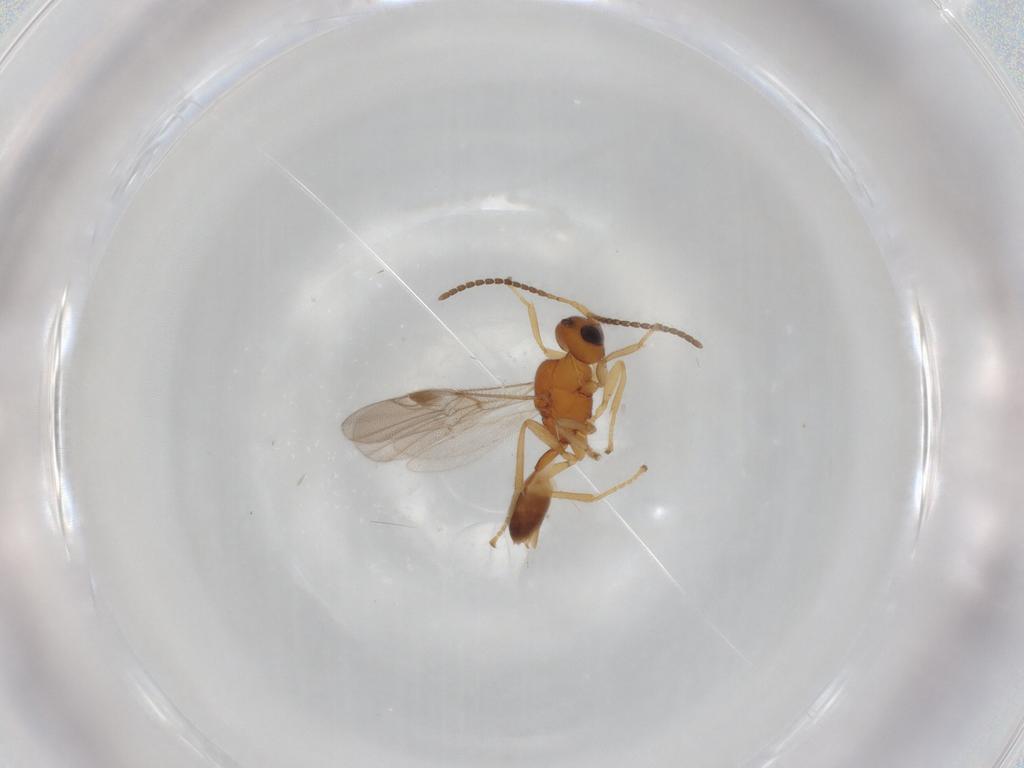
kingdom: Animalia
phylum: Arthropoda
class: Insecta
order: Hymenoptera
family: Braconidae
